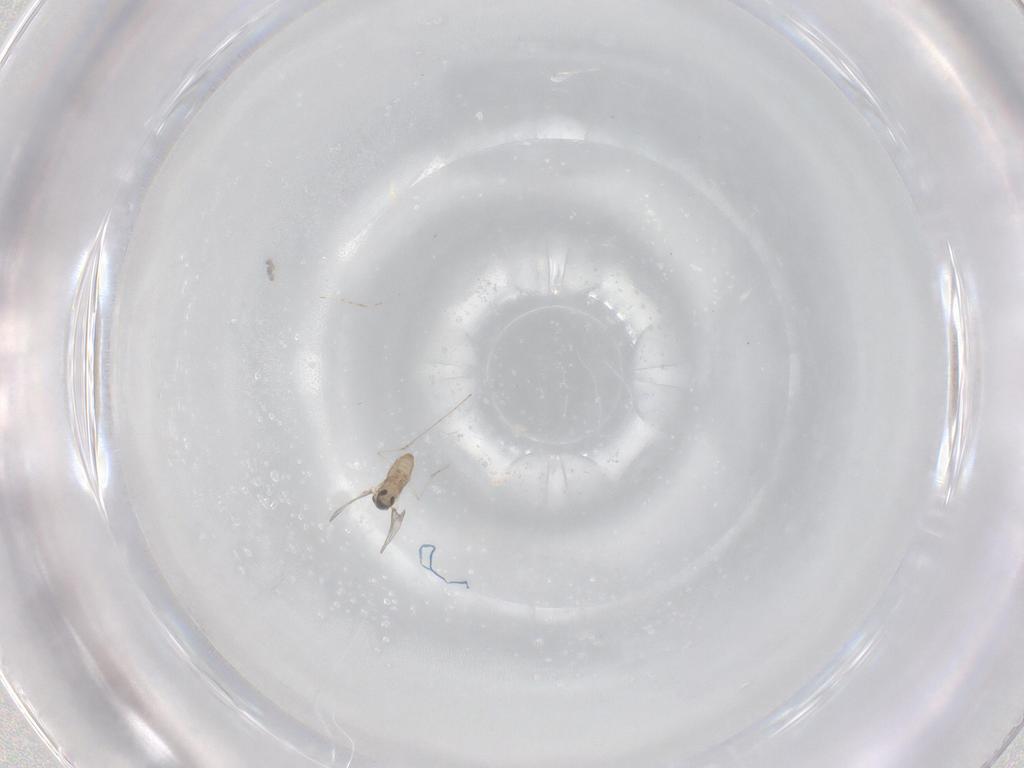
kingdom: Animalia
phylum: Arthropoda
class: Insecta
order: Diptera
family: Psychodidae
